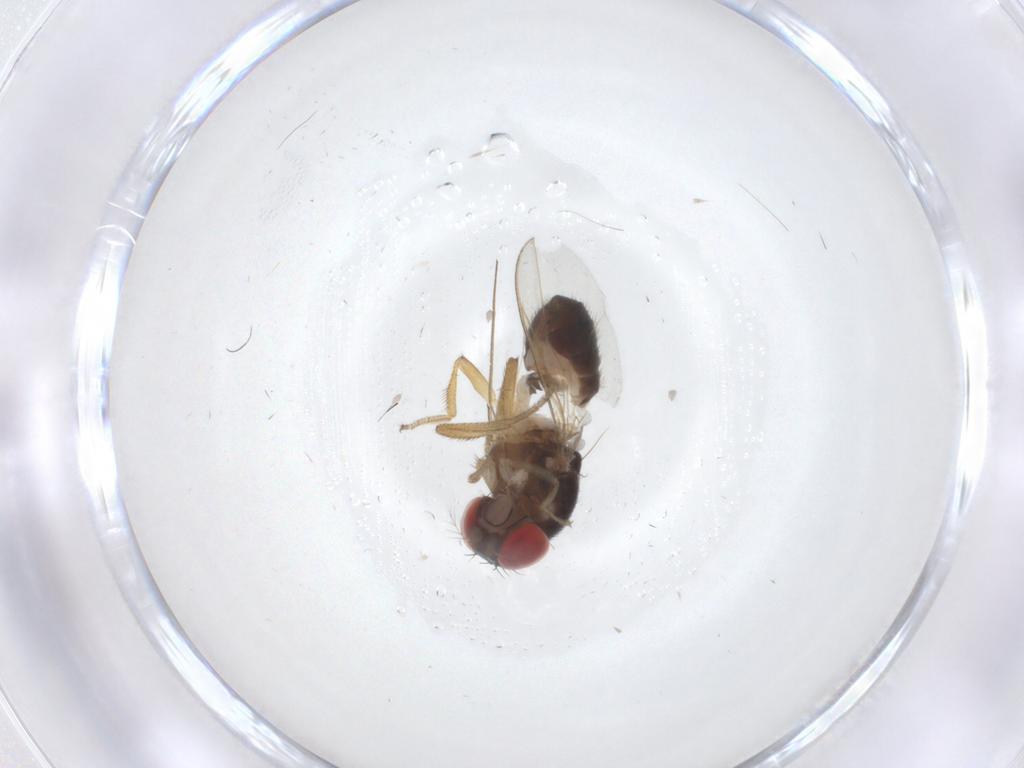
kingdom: Animalia
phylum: Arthropoda
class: Insecta
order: Diptera
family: Drosophilidae
